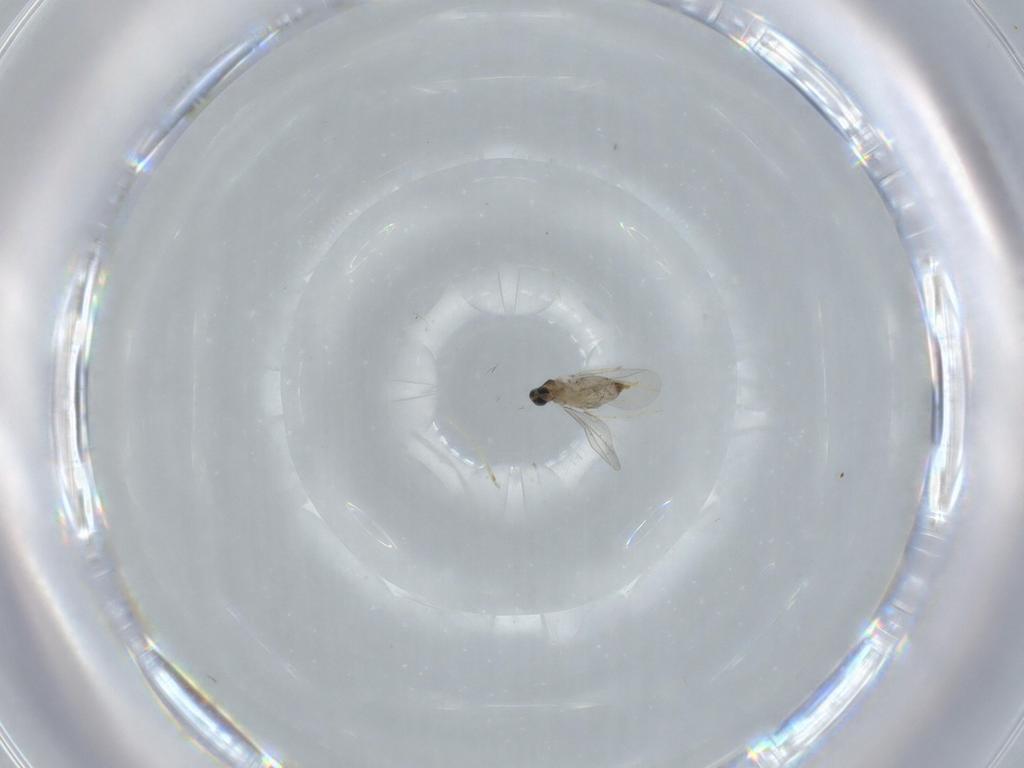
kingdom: Animalia
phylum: Arthropoda
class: Insecta
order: Diptera
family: Cecidomyiidae
